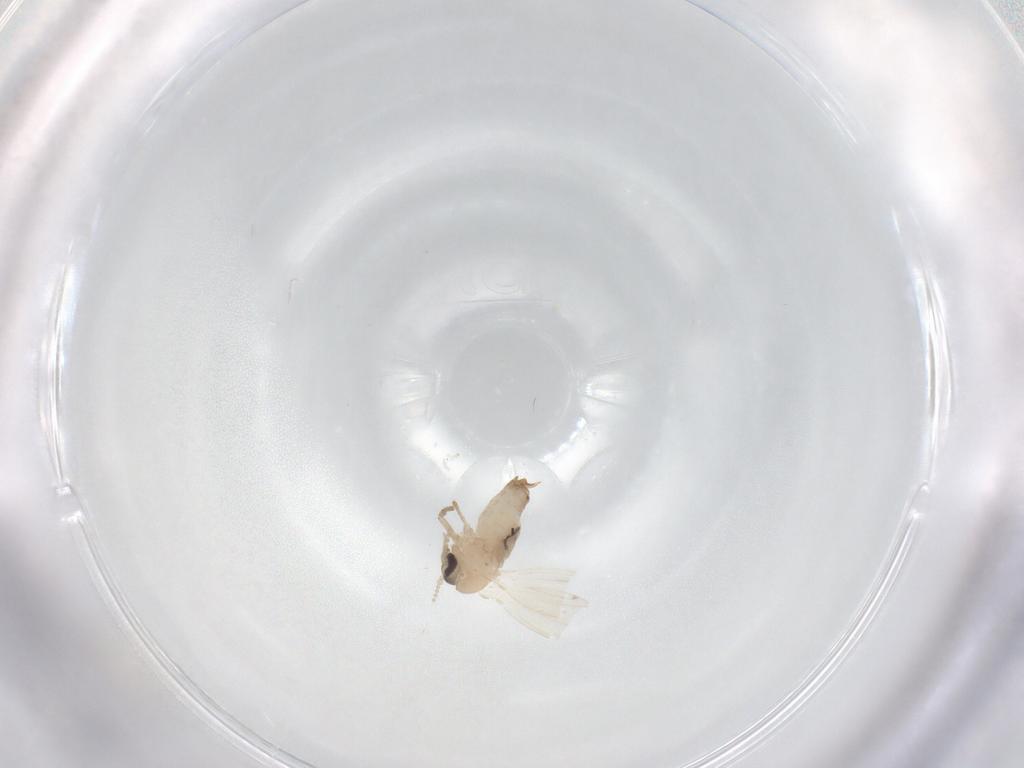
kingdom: Animalia
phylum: Arthropoda
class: Insecta
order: Diptera
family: Psychodidae
